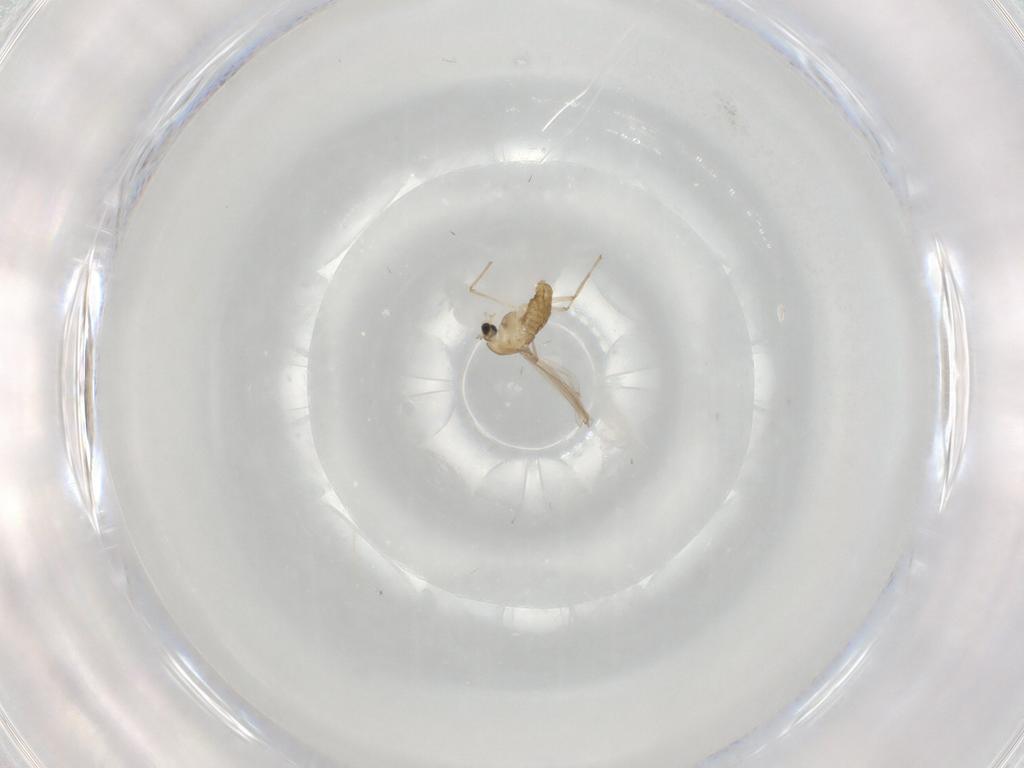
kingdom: Animalia
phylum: Arthropoda
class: Insecta
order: Diptera
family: Chironomidae
